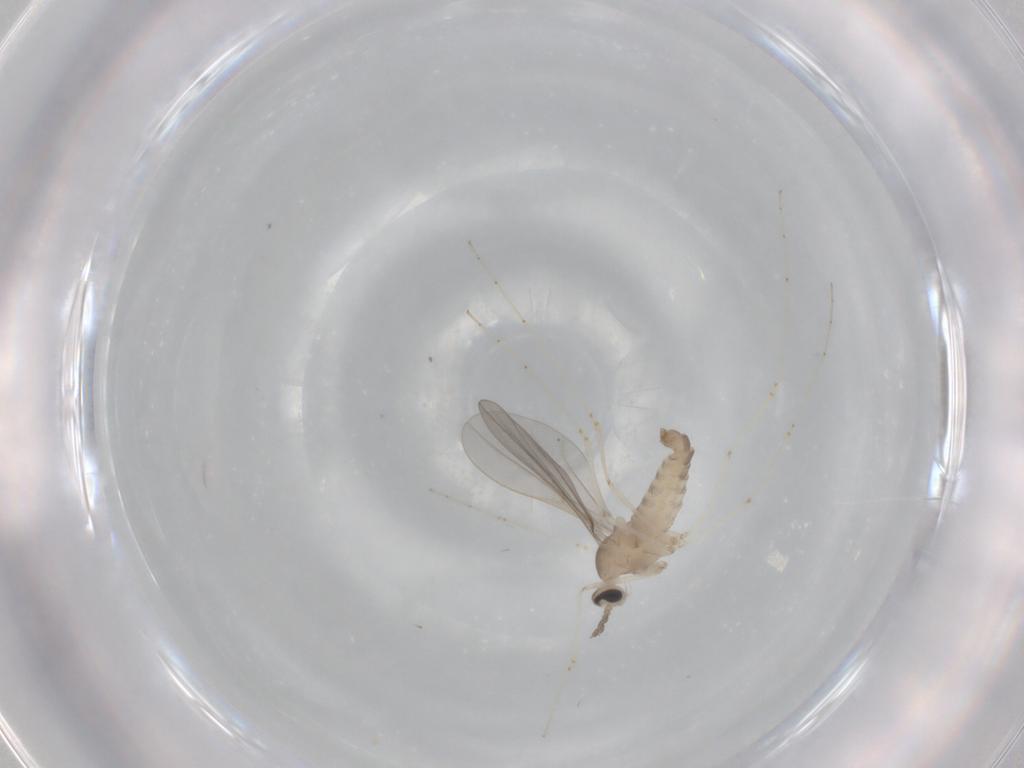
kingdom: Animalia
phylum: Arthropoda
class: Insecta
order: Diptera
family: Cecidomyiidae
